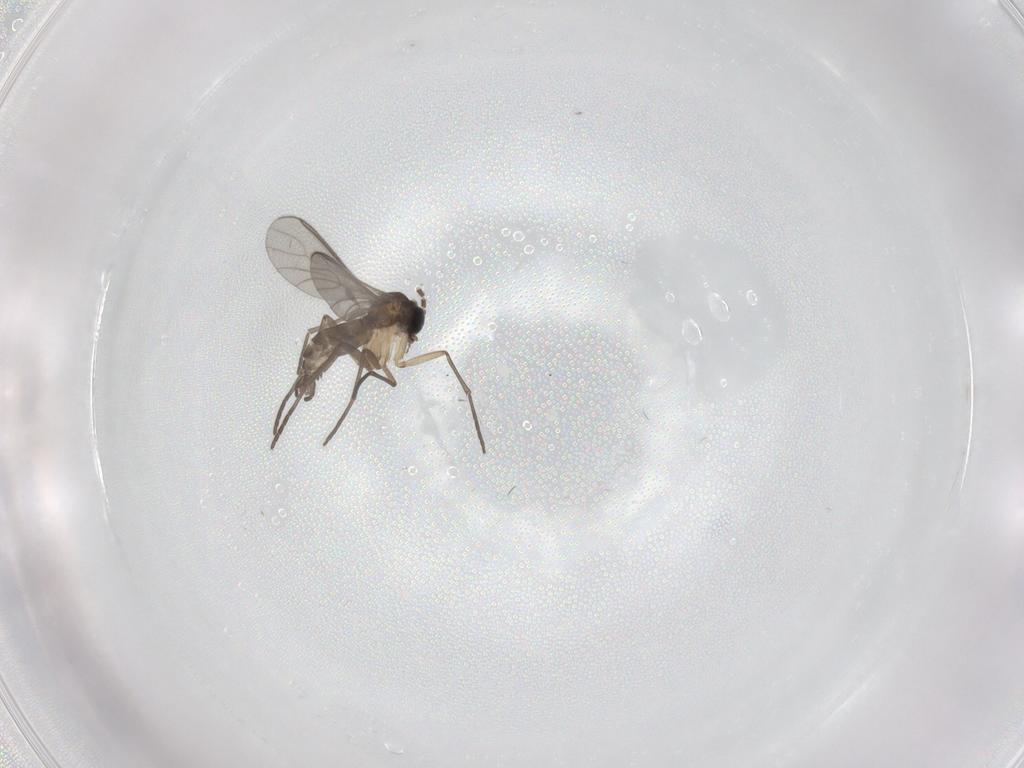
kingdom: Animalia
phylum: Arthropoda
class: Insecta
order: Diptera
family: Sciaridae
